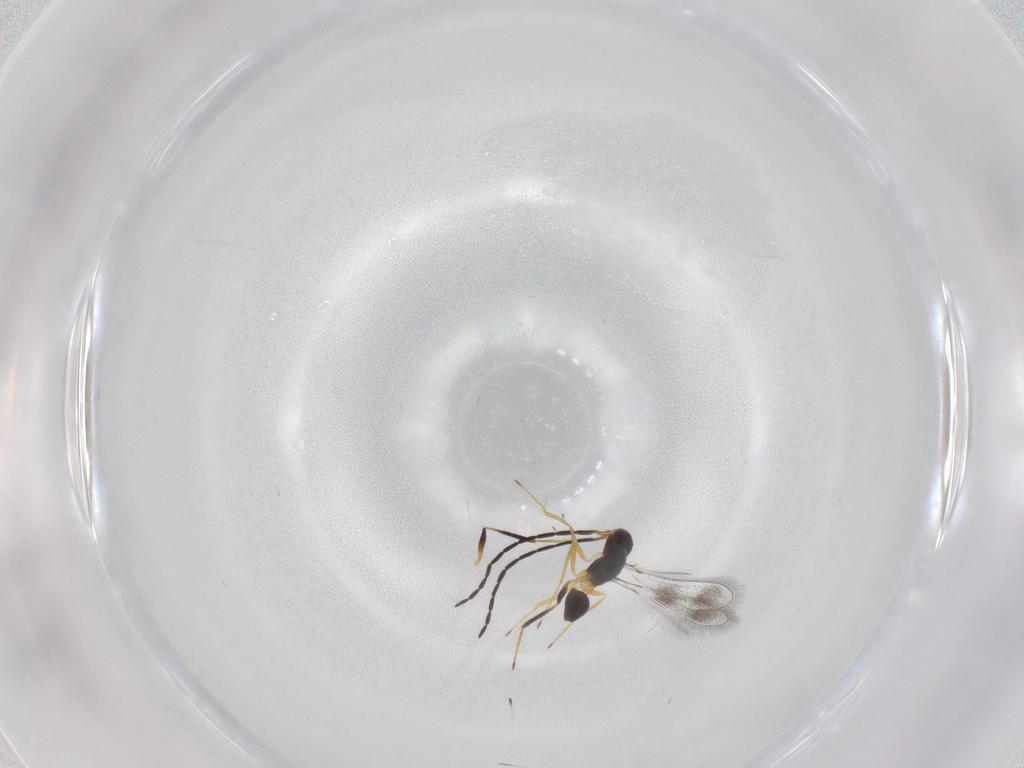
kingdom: Animalia
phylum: Arthropoda
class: Insecta
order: Hymenoptera
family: Mymaridae
